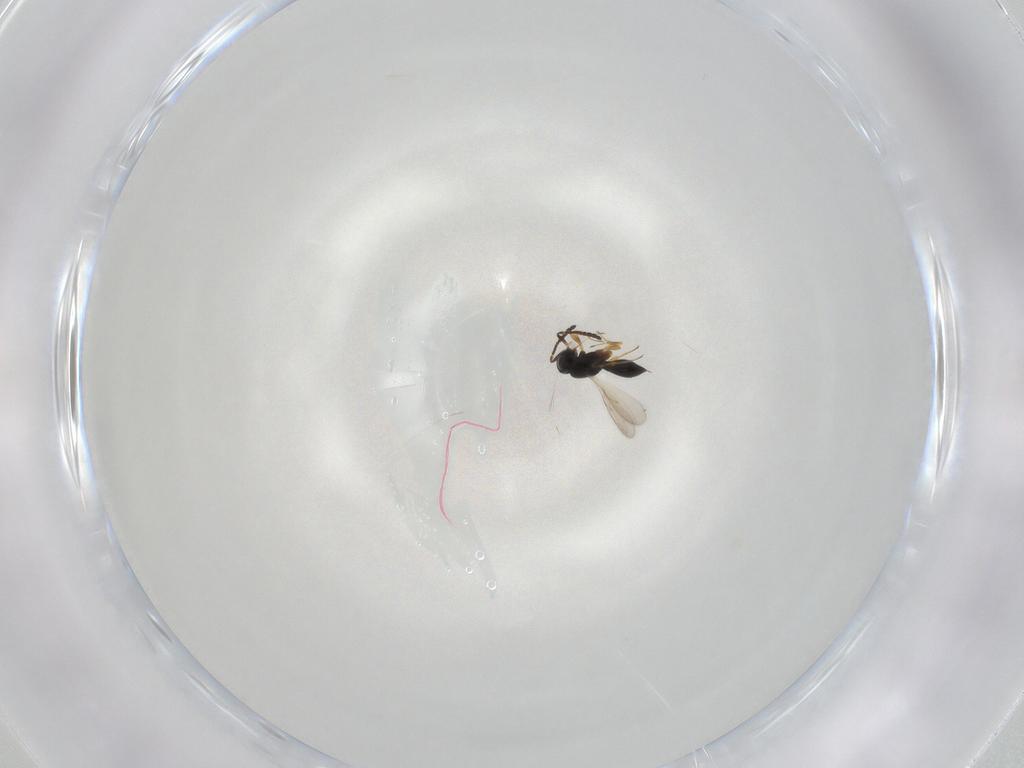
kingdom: Animalia
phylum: Arthropoda
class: Insecta
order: Hymenoptera
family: Scelionidae
